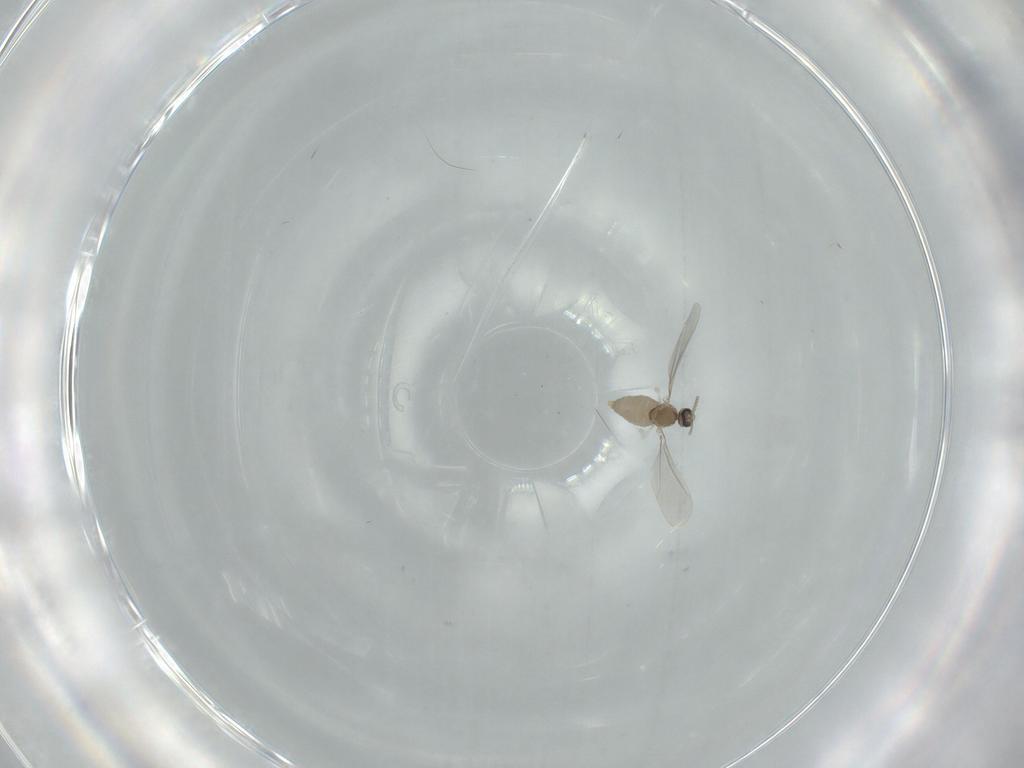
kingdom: Animalia
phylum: Arthropoda
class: Insecta
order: Diptera
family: Cecidomyiidae
